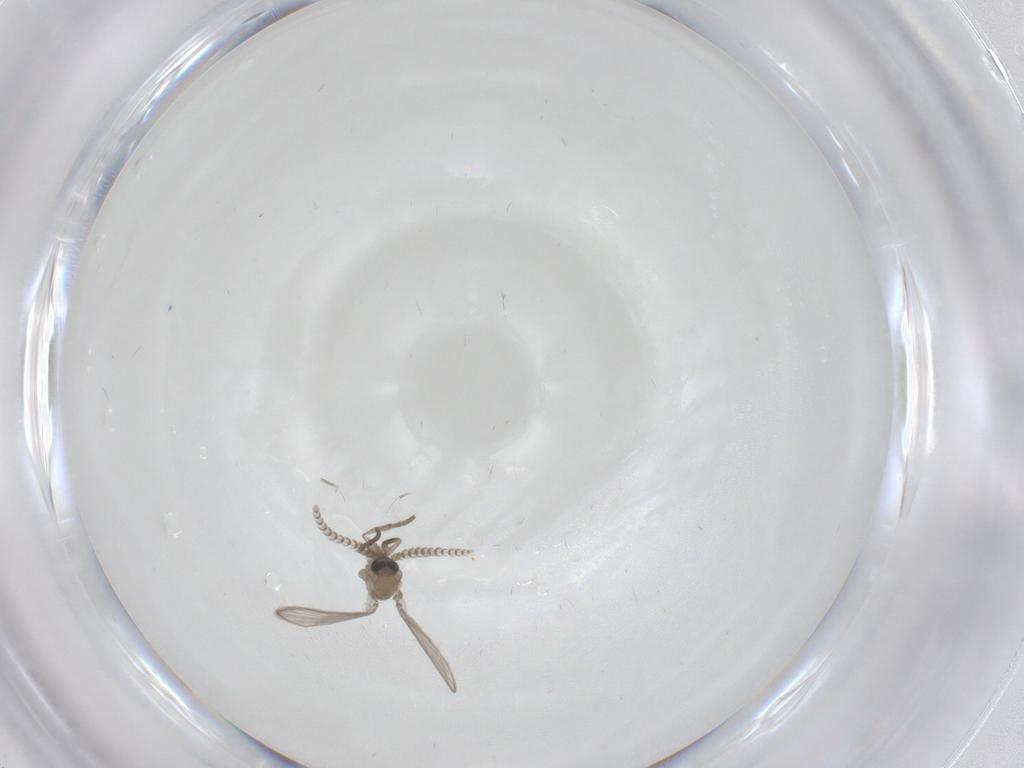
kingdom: Animalia
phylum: Arthropoda
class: Insecta
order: Diptera
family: Psychodidae
